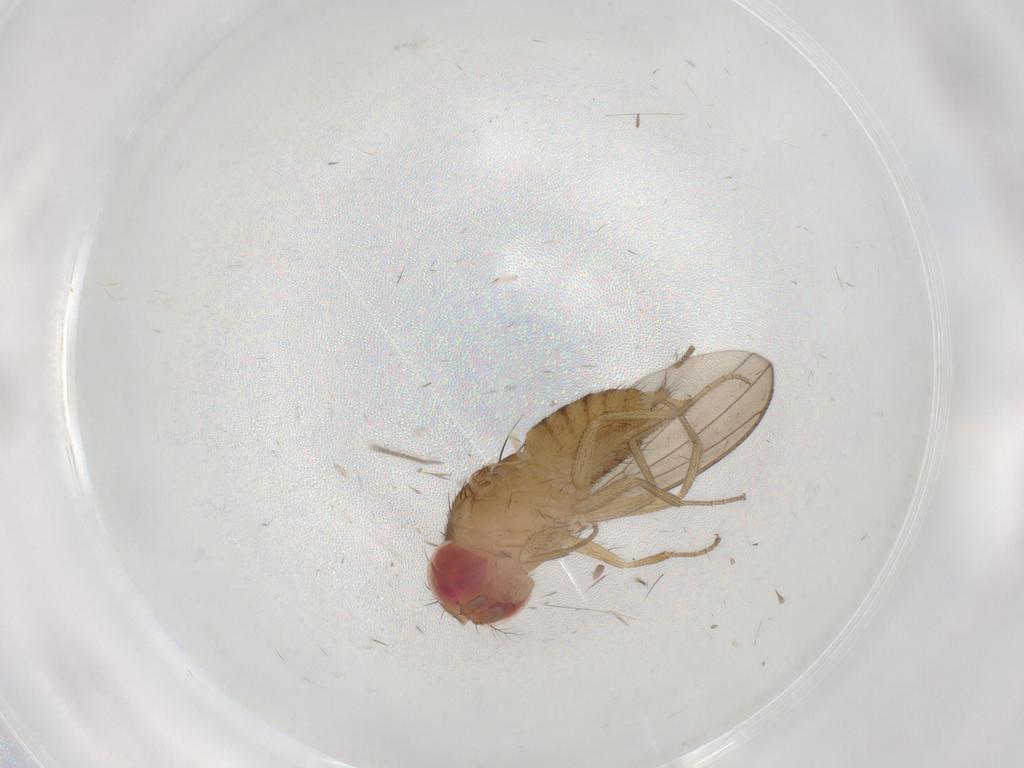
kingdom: Animalia
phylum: Arthropoda
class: Insecta
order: Diptera
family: Drosophilidae
